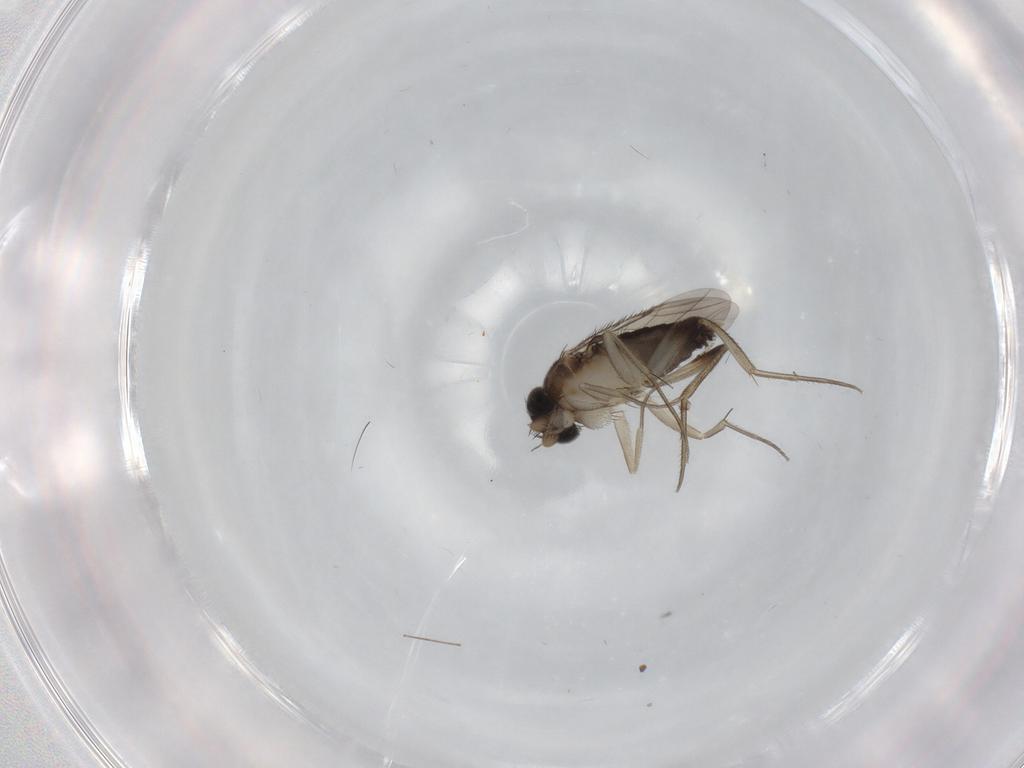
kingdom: Animalia
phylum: Arthropoda
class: Insecta
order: Diptera
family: Phoridae
